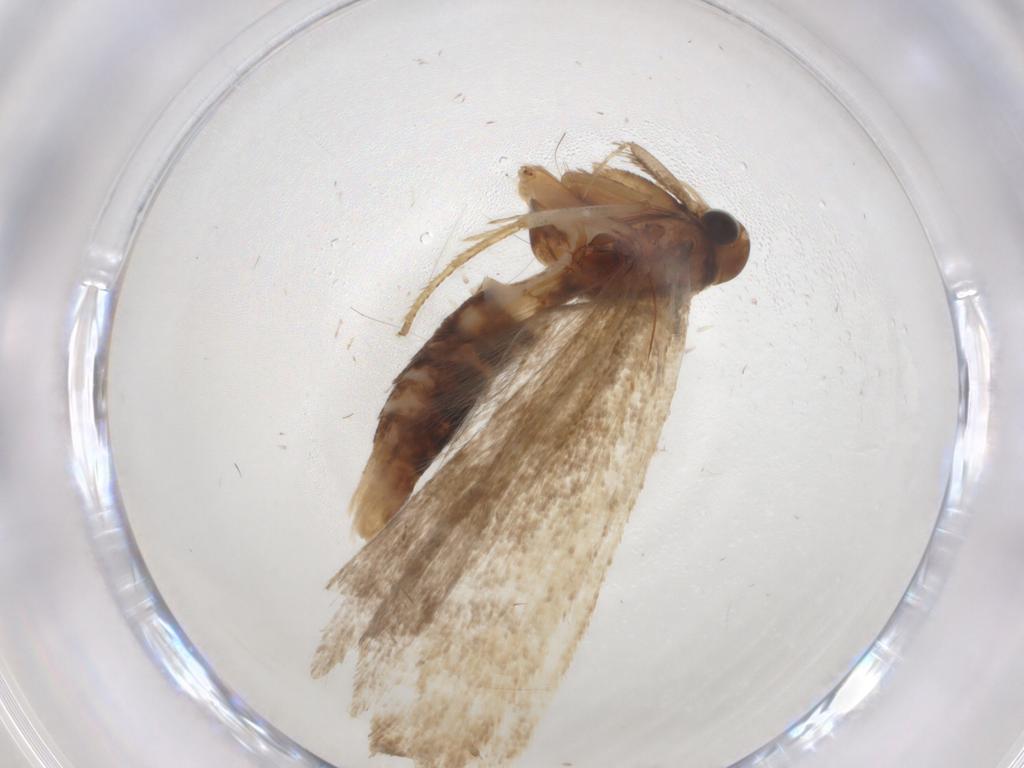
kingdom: Animalia
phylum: Arthropoda
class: Insecta
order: Lepidoptera
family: Gelechiidae
